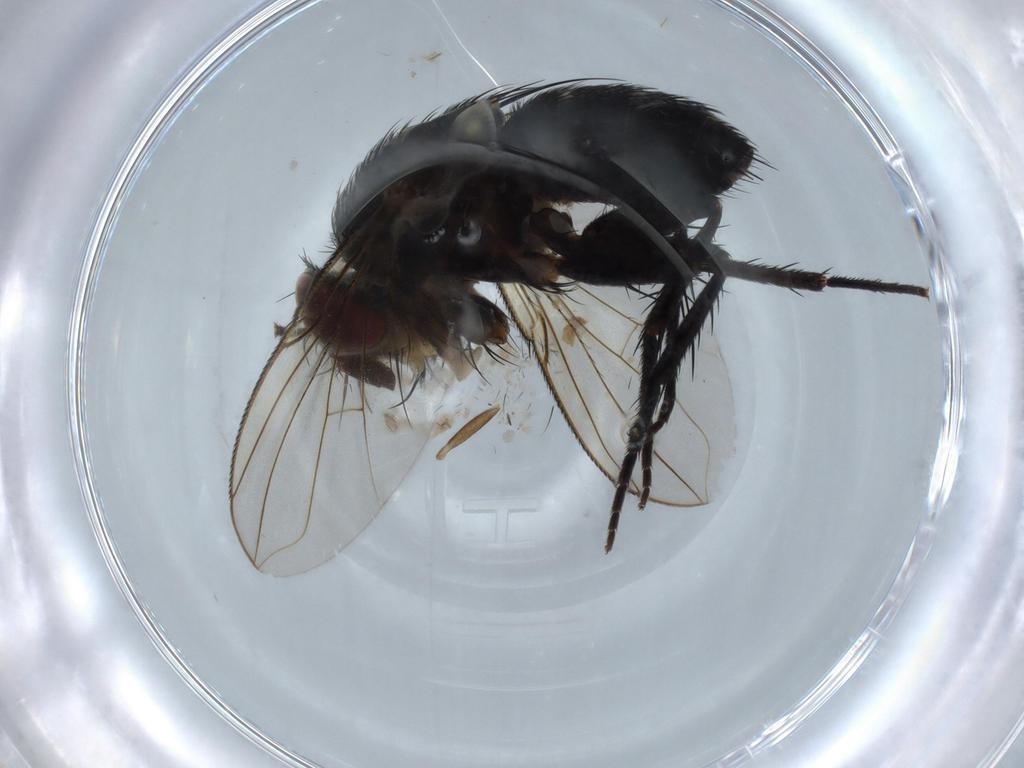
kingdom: Animalia
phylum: Arthropoda
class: Insecta
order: Diptera
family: Tachinidae
